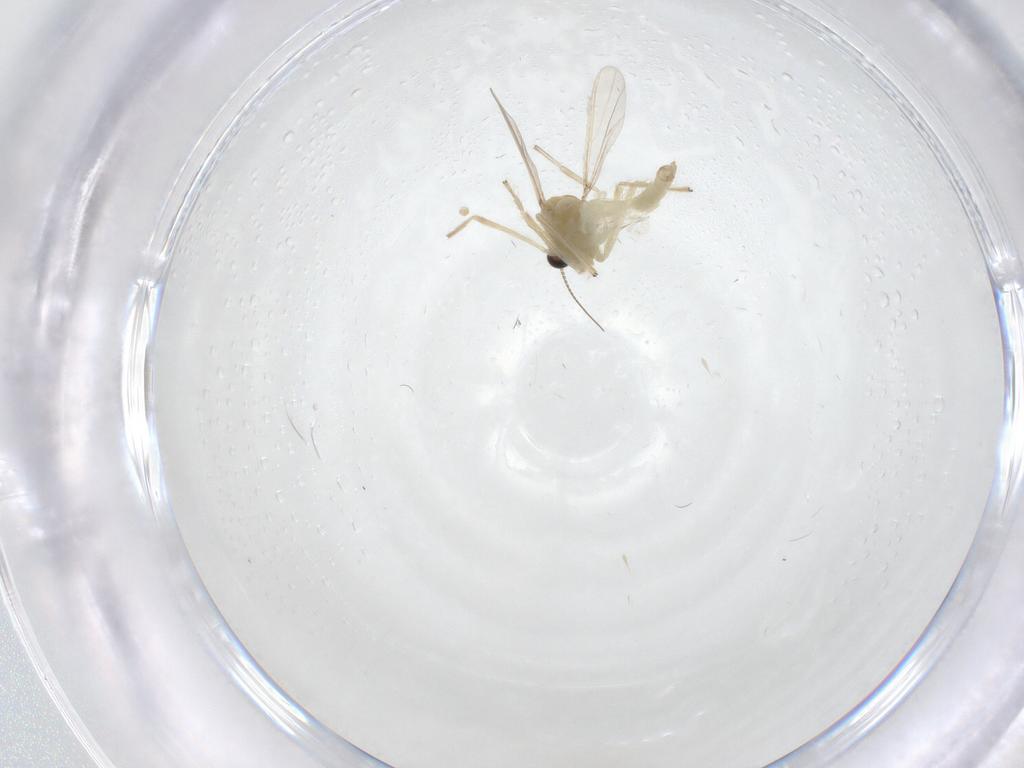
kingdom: Animalia
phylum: Arthropoda
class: Insecta
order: Diptera
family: Chironomidae
